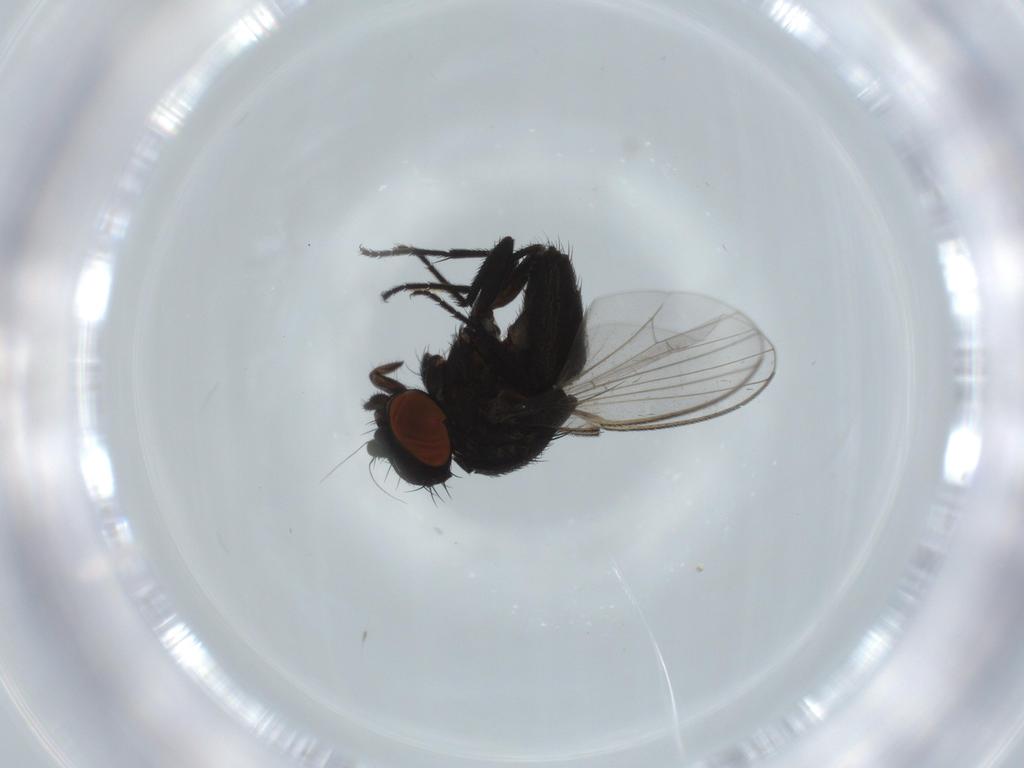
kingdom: Animalia
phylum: Arthropoda
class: Insecta
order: Diptera
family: Milichiidae
